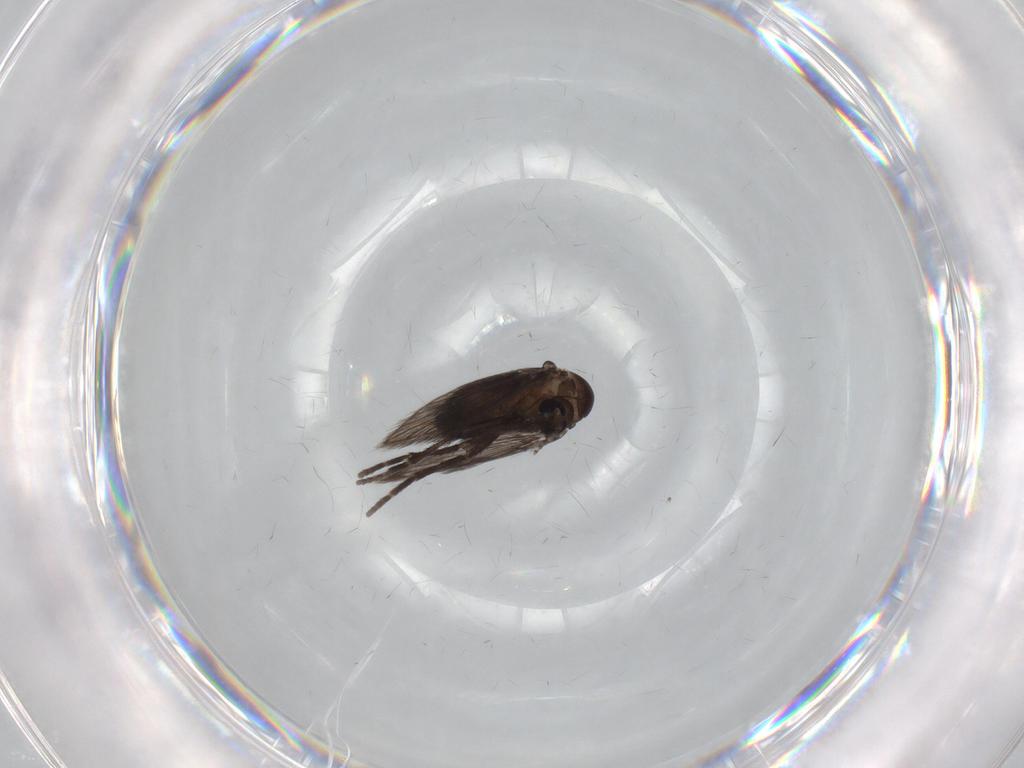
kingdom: Animalia
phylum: Arthropoda
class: Insecta
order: Diptera
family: Psychodidae
